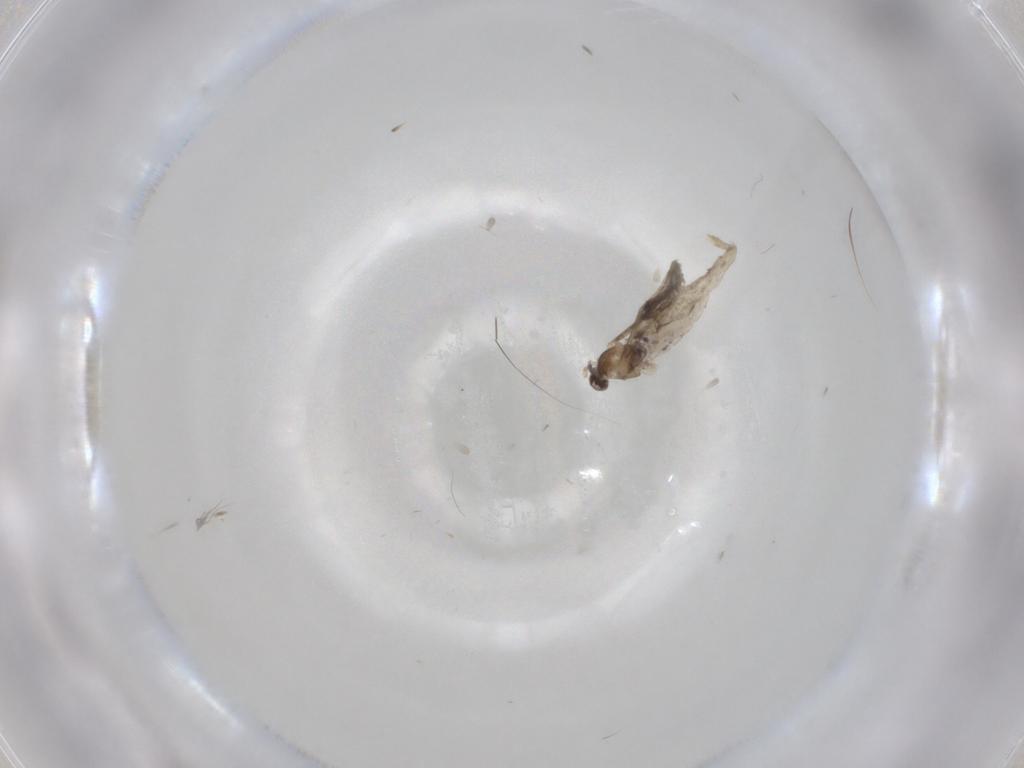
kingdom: Animalia
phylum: Arthropoda
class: Insecta
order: Diptera
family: Cecidomyiidae
